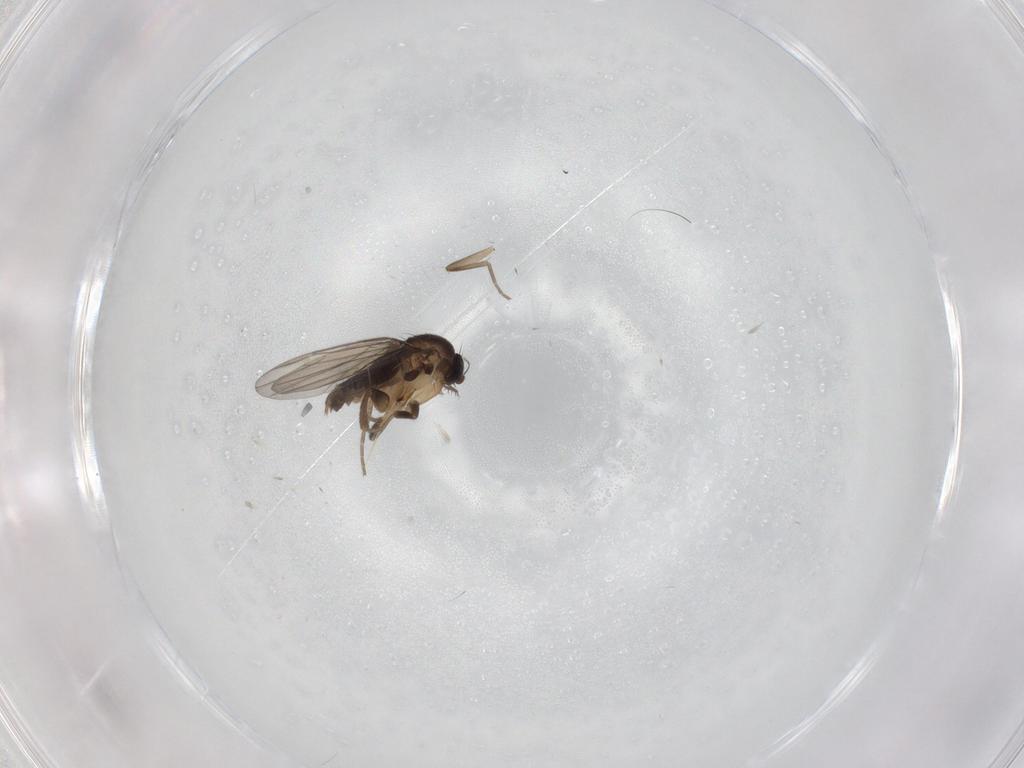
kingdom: Animalia
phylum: Arthropoda
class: Insecta
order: Diptera
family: Phoridae
